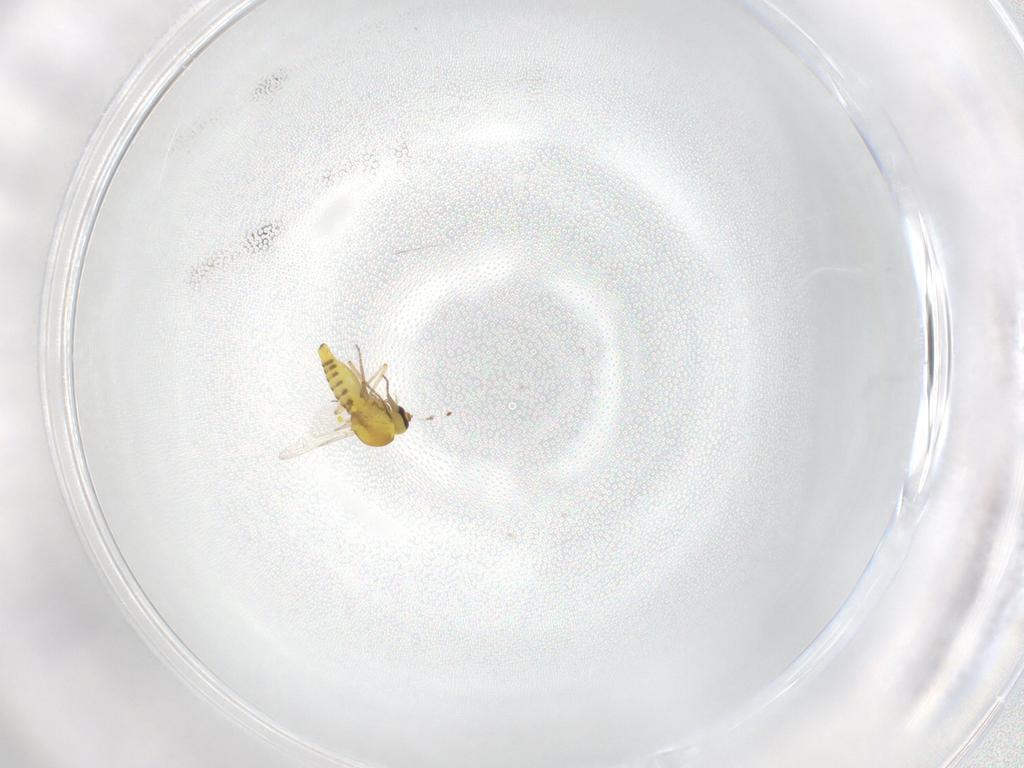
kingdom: Animalia
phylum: Arthropoda
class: Insecta
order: Diptera
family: Ceratopogonidae
